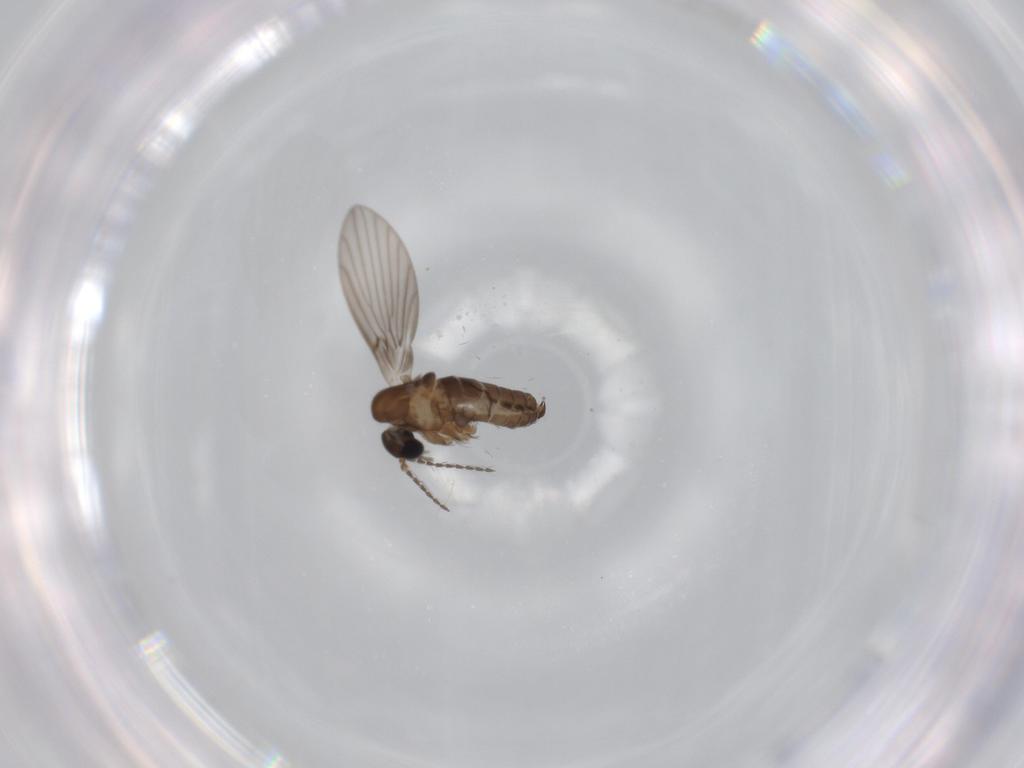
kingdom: Animalia
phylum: Arthropoda
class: Insecta
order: Diptera
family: Psychodidae
